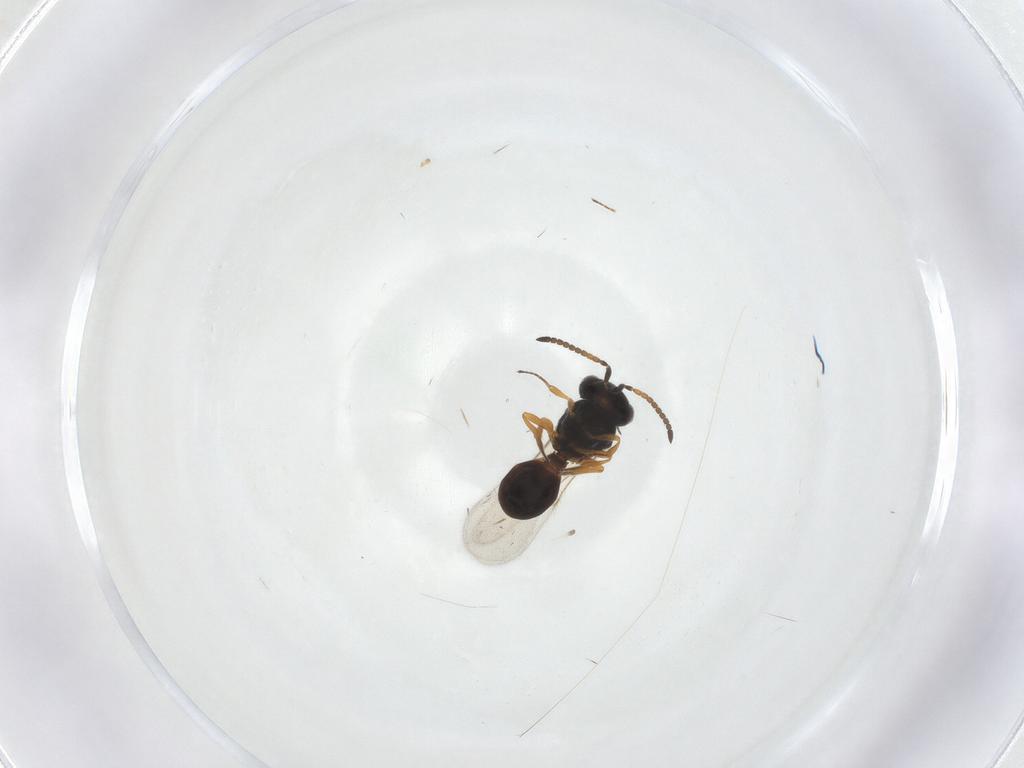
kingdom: Animalia
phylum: Arthropoda
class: Insecta
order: Hymenoptera
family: Scelionidae
